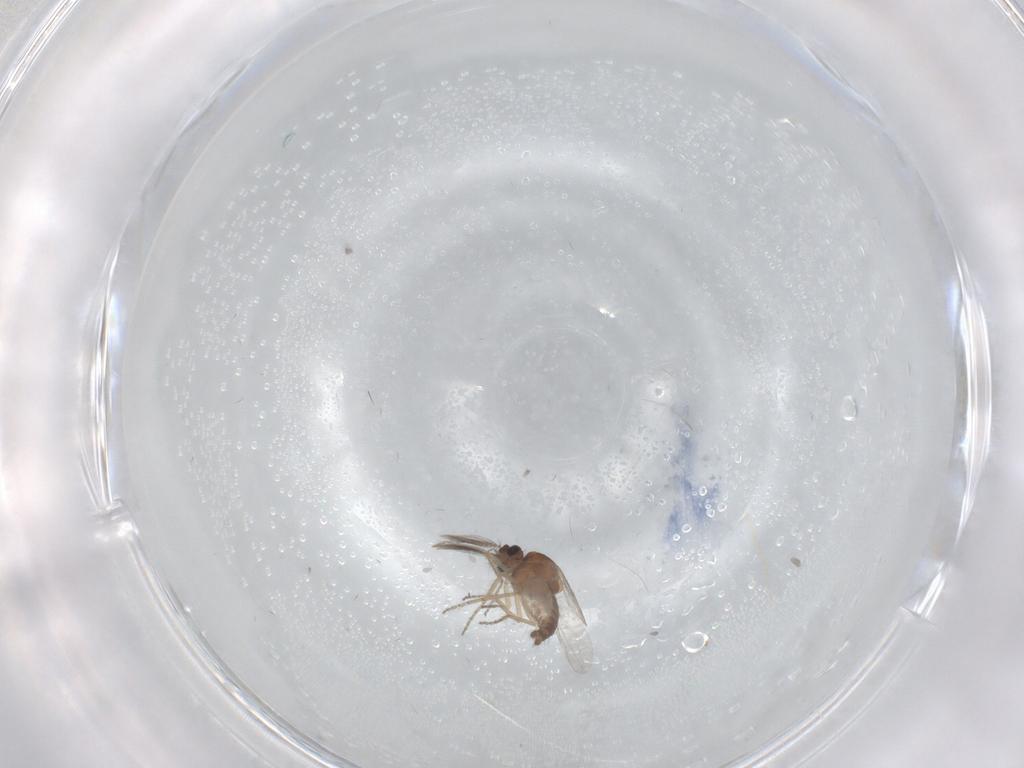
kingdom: Animalia
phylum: Arthropoda
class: Insecta
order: Diptera
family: Ceratopogonidae
